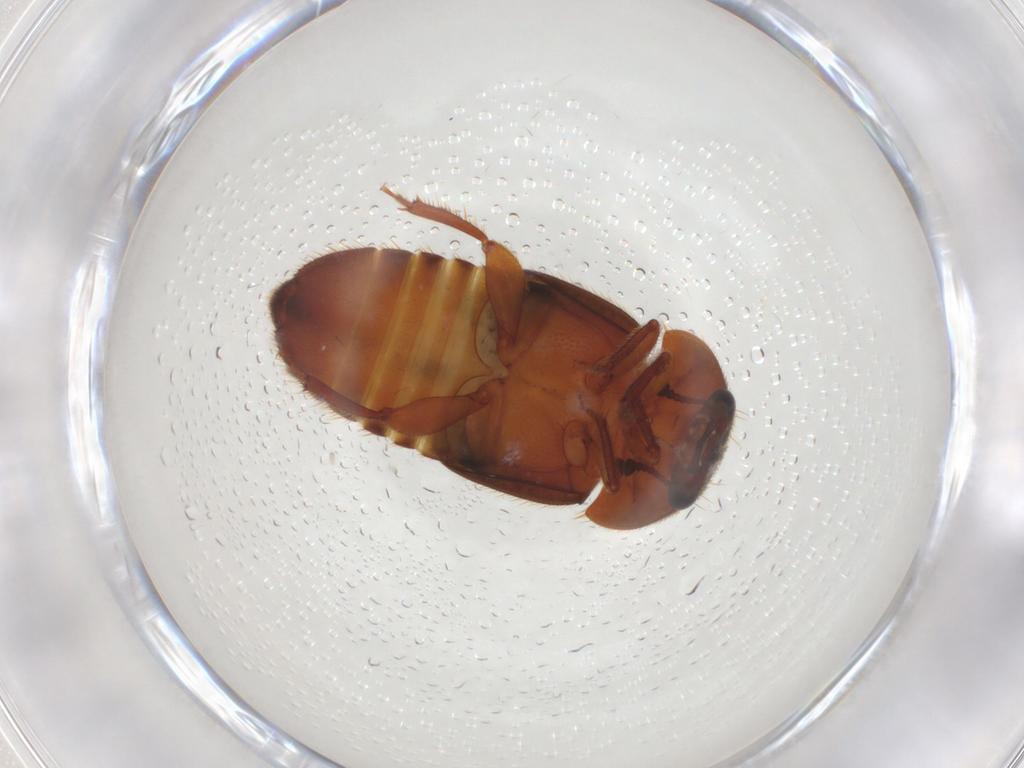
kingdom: Animalia
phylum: Arthropoda
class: Insecta
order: Coleoptera
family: Nitidulidae
